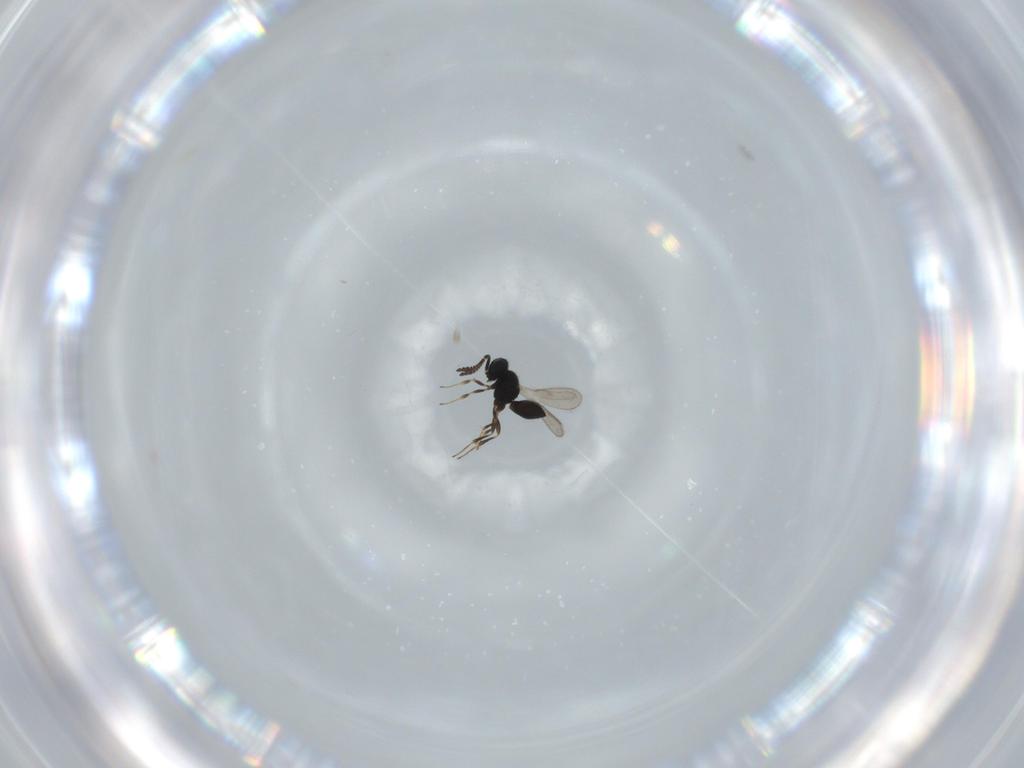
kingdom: Animalia
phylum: Arthropoda
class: Insecta
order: Hymenoptera
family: Scelionidae
